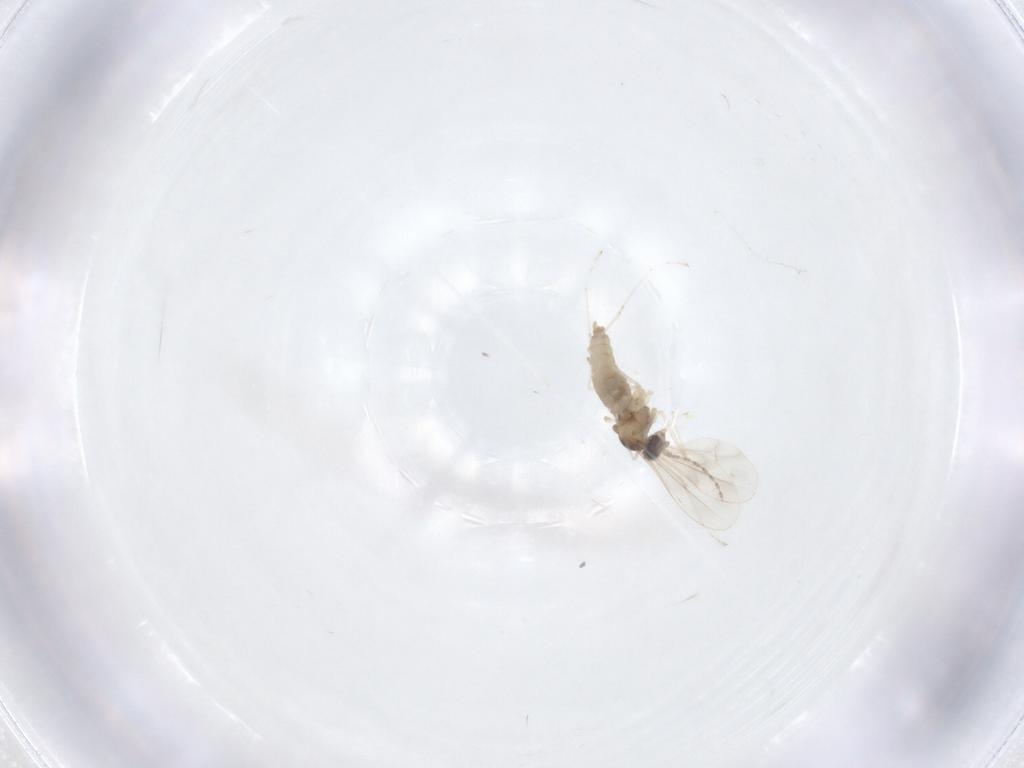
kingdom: Animalia
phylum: Arthropoda
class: Insecta
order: Diptera
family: Cecidomyiidae
